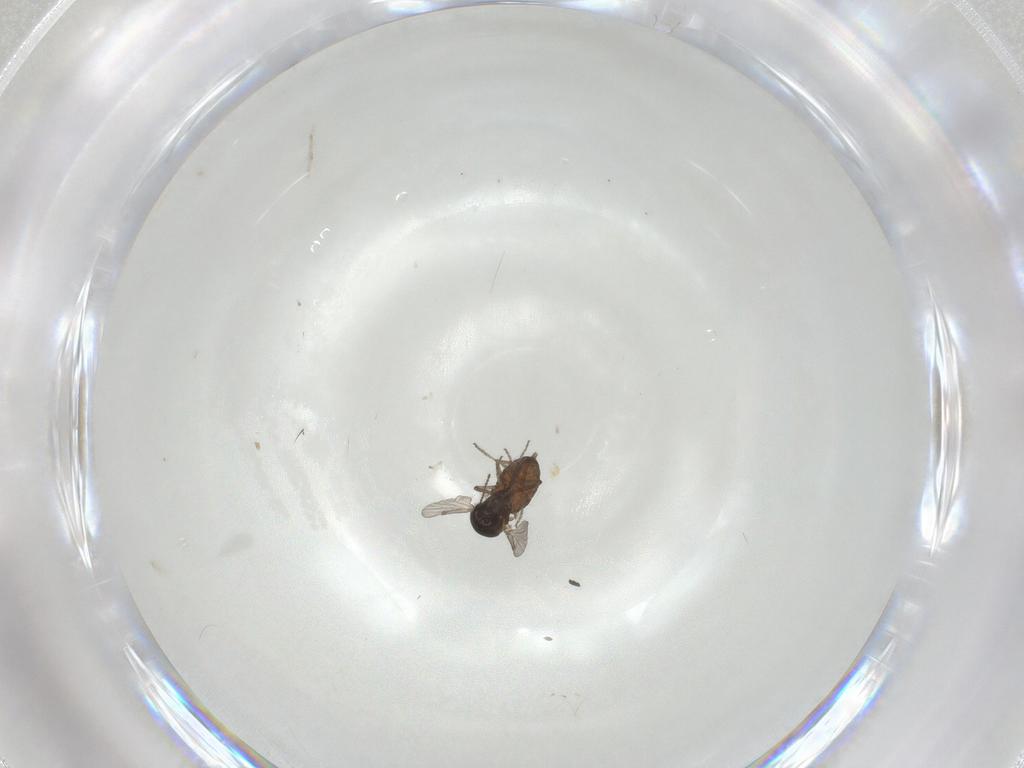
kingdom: Animalia
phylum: Arthropoda
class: Insecta
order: Diptera
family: Ceratopogonidae
